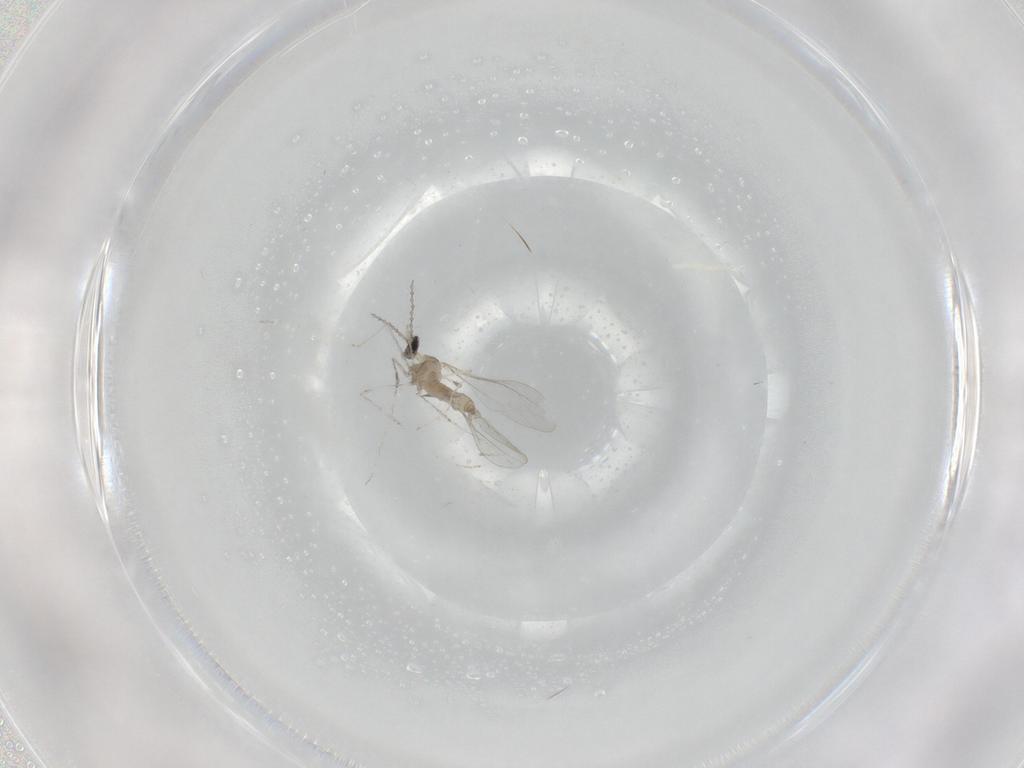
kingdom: Animalia
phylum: Arthropoda
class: Insecta
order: Diptera
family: Cecidomyiidae
